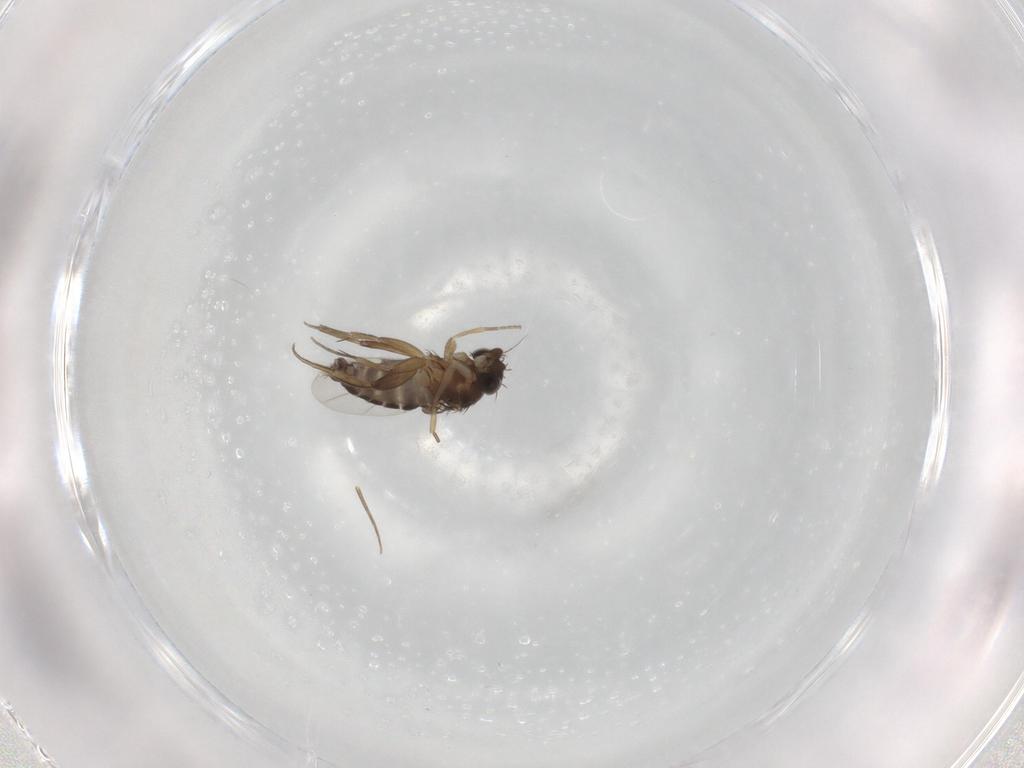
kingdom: Animalia
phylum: Arthropoda
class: Insecta
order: Diptera
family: Phoridae
